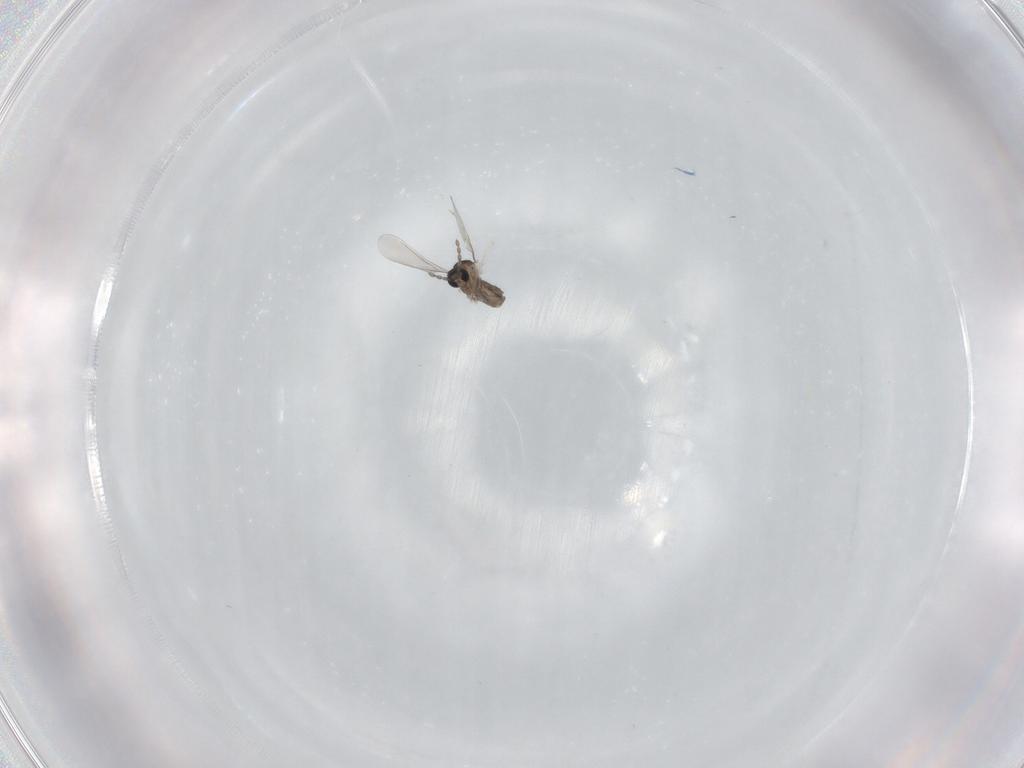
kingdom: Animalia
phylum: Arthropoda
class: Insecta
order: Diptera
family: Cecidomyiidae
